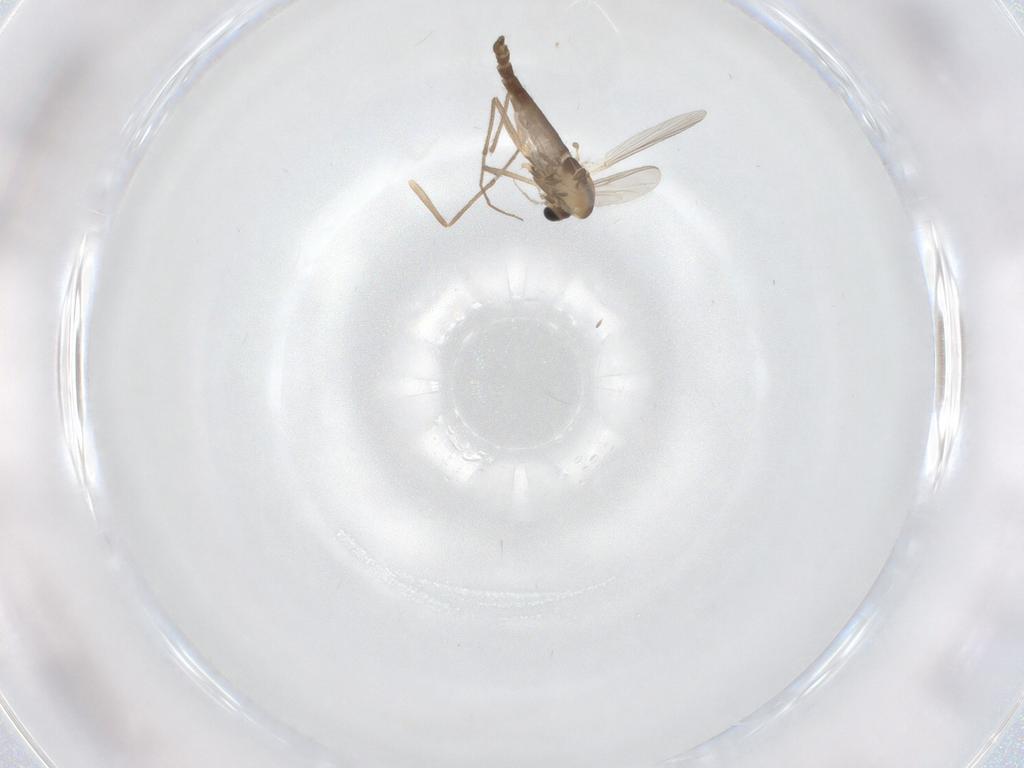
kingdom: Animalia
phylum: Arthropoda
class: Insecta
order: Diptera
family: Chironomidae
